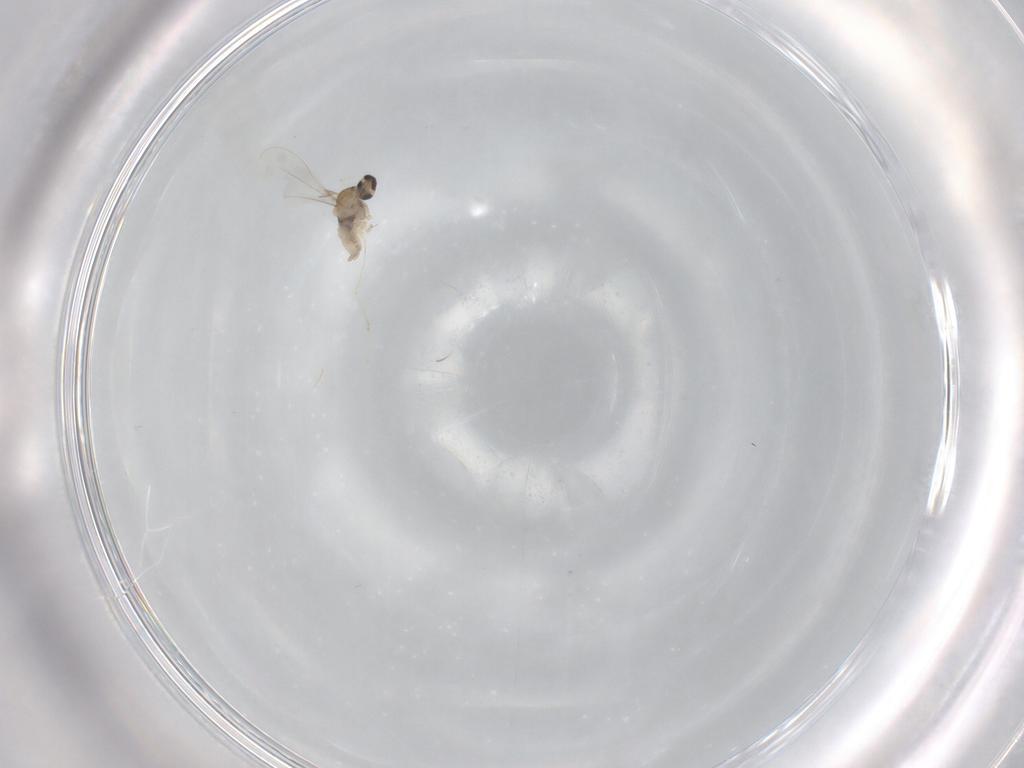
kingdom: Animalia
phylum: Arthropoda
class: Insecta
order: Diptera
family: Cecidomyiidae
